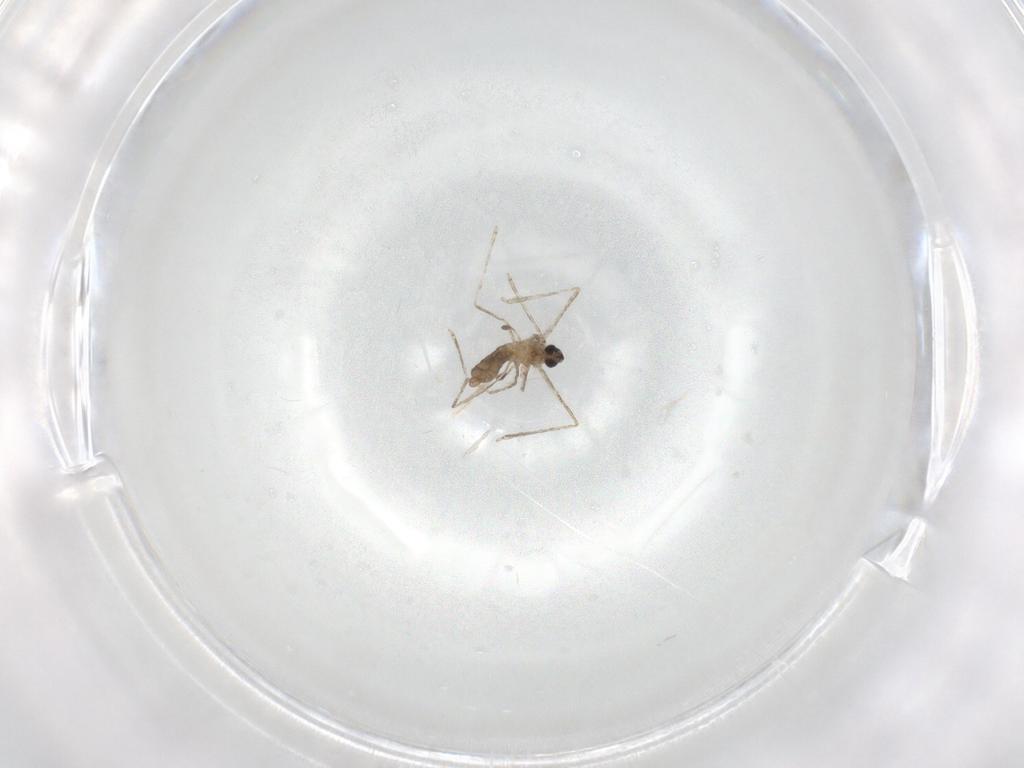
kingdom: Animalia
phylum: Arthropoda
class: Insecta
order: Diptera
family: Cecidomyiidae
